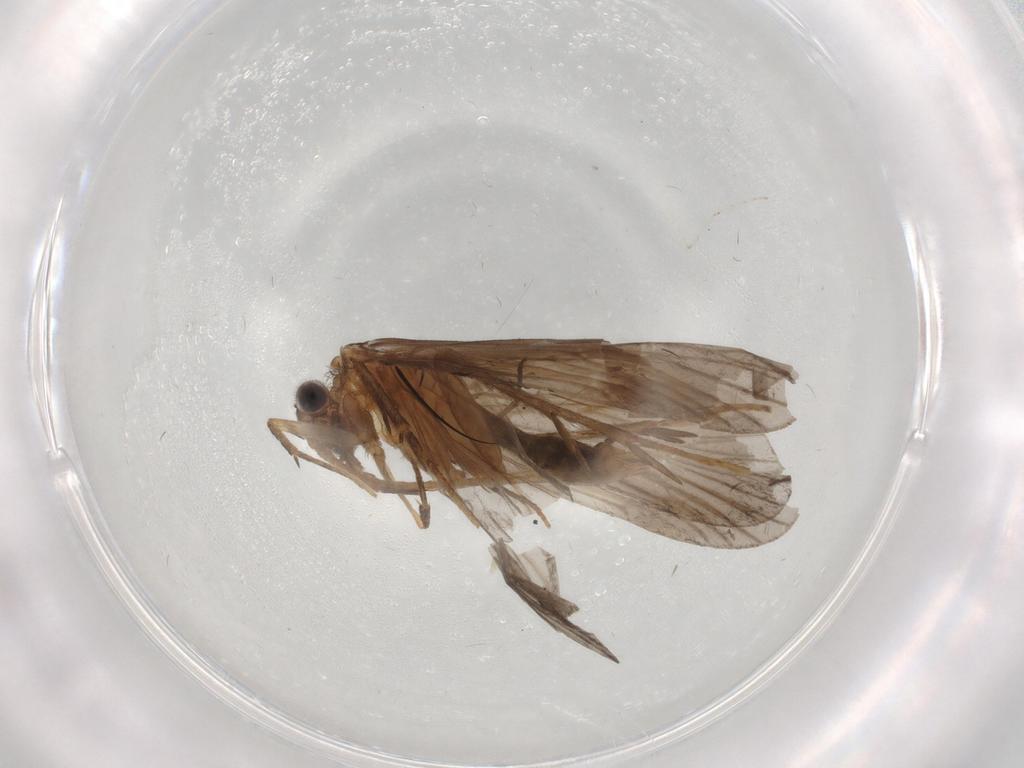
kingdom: Animalia
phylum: Arthropoda
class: Insecta
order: Trichoptera
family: Philopotamidae
